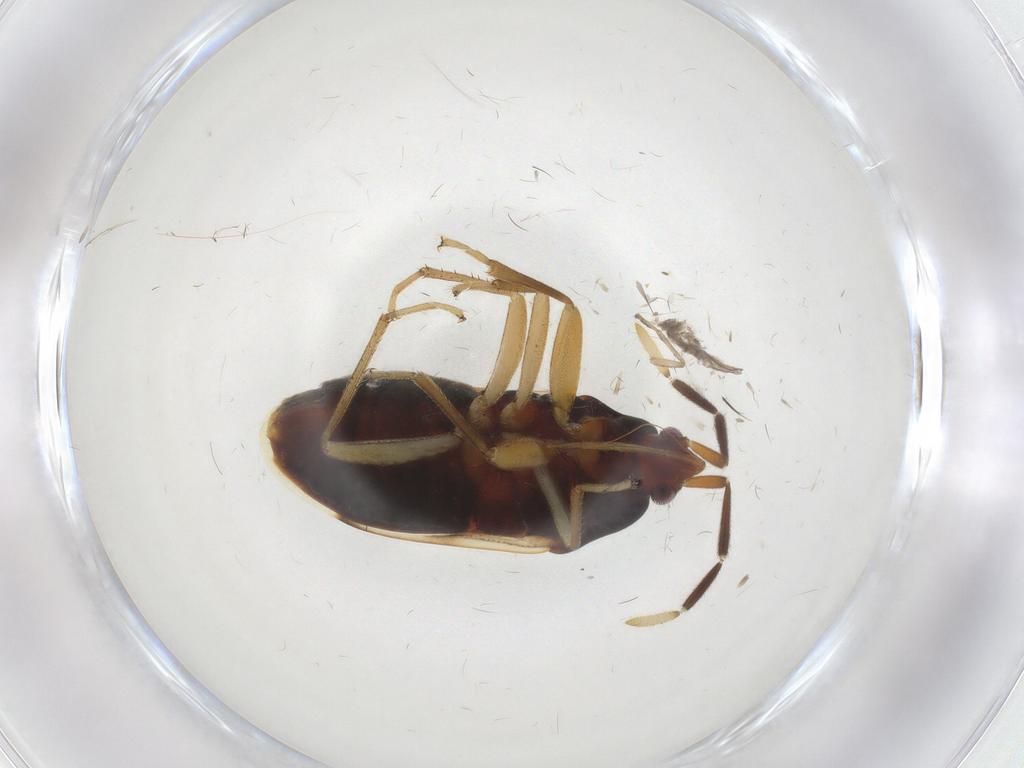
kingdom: Animalia
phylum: Arthropoda
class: Insecta
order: Hemiptera
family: Rhyparochromidae
